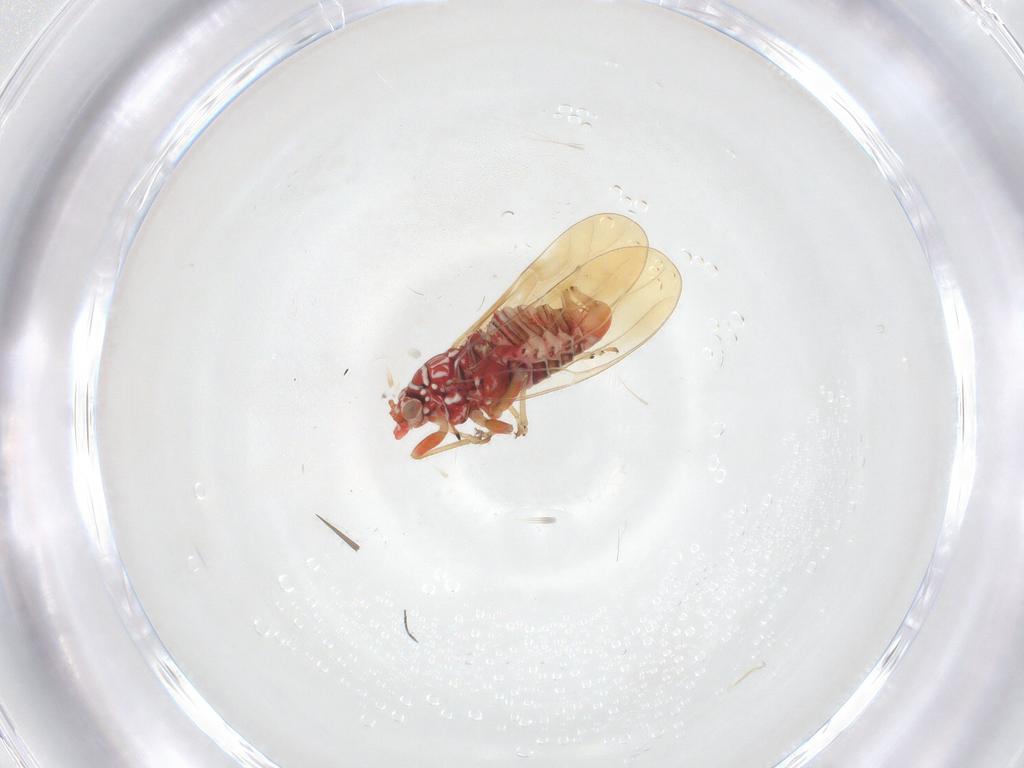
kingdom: Animalia
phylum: Arthropoda
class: Insecta
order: Hemiptera
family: Psyllidae
